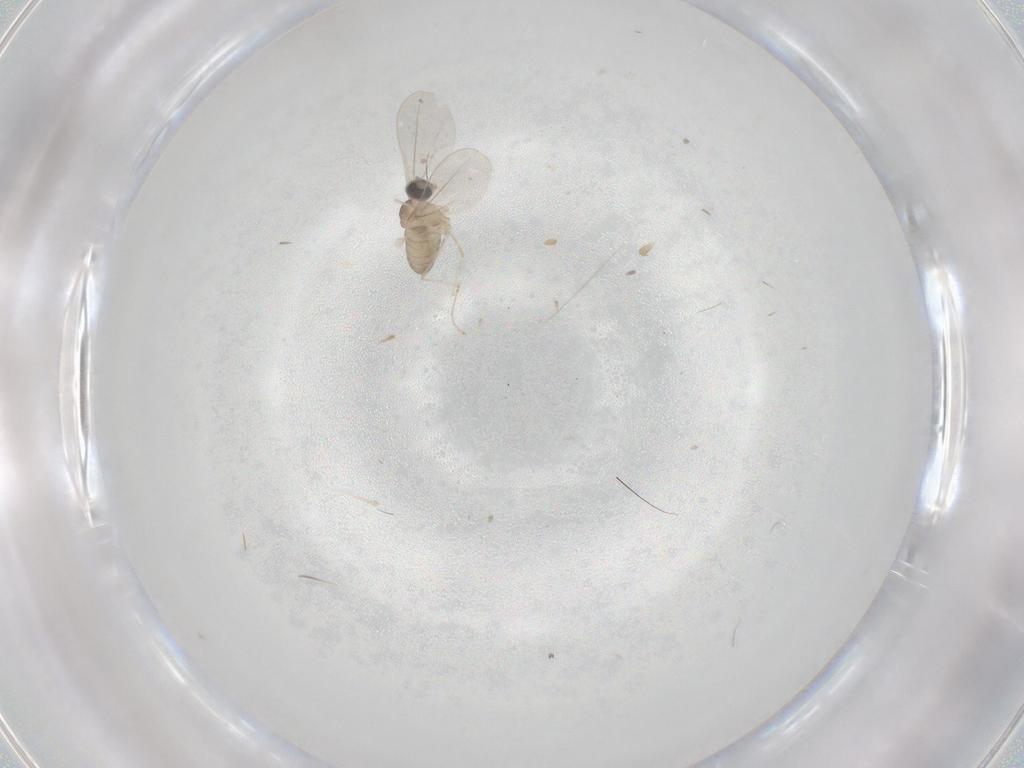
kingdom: Animalia
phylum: Arthropoda
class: Insecta
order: Diptera
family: Cecidomyiidae
